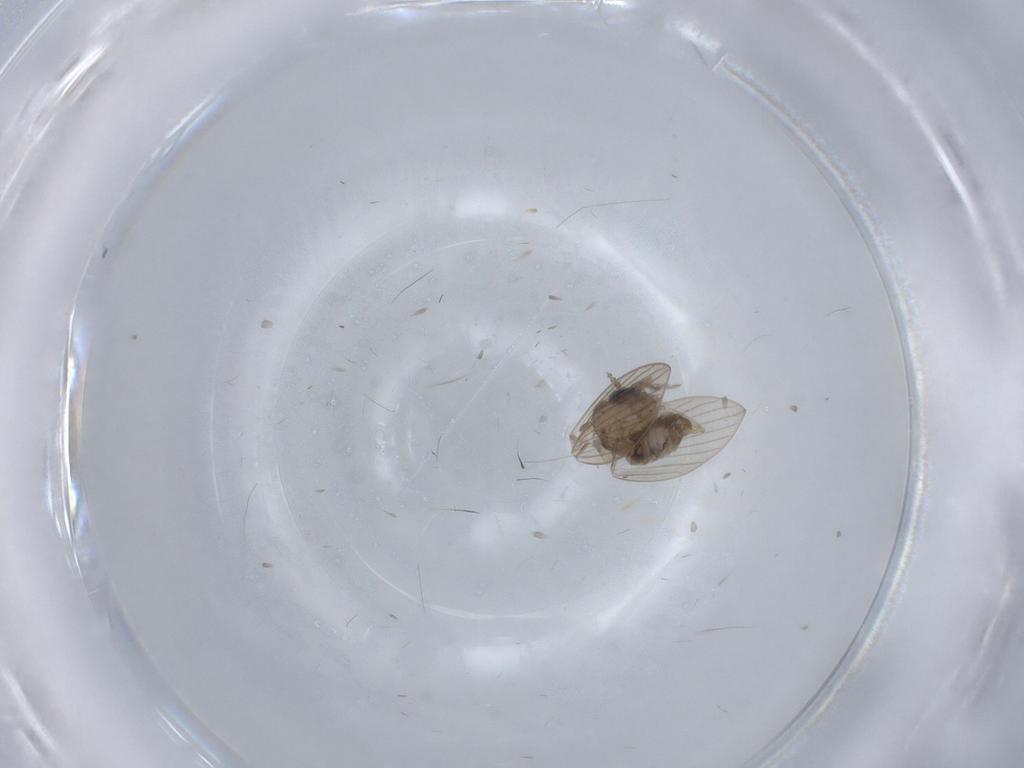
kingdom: Animalia
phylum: Arthropoda
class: Insecta
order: Diptera
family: Psychodidae
